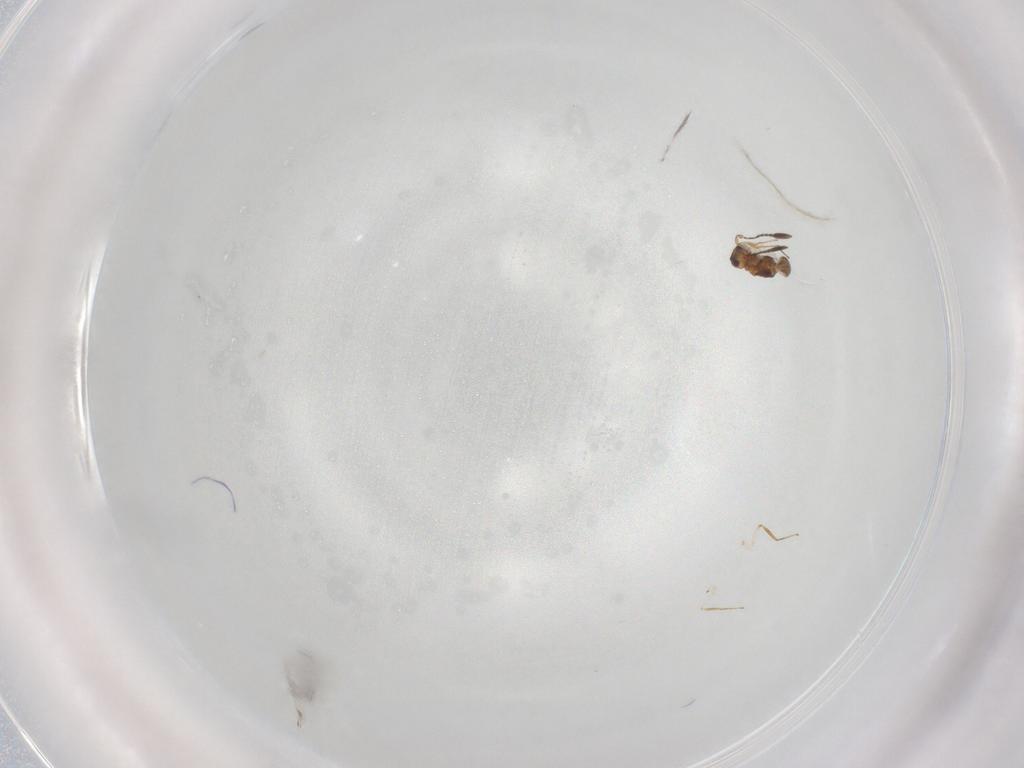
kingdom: Animalia
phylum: Arthropoda
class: Insecta
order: Hymenoptera
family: Mymaridae
